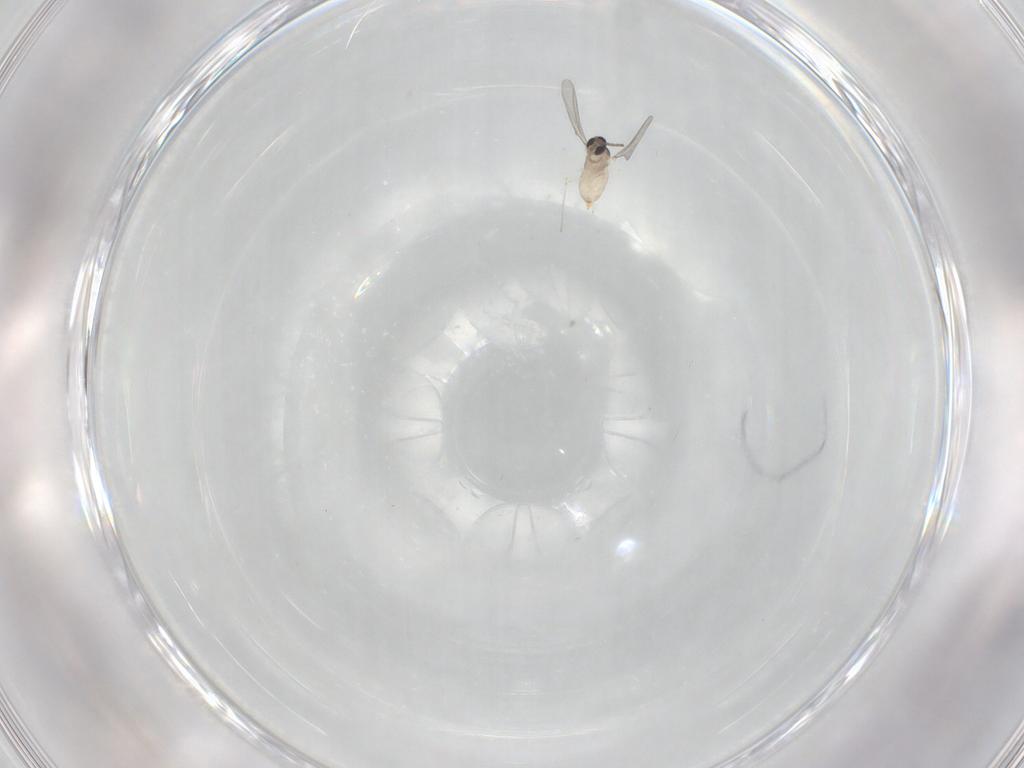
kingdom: Animalia
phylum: Arthropoda
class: Insecta
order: Diptera
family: Cecidomyiidae
